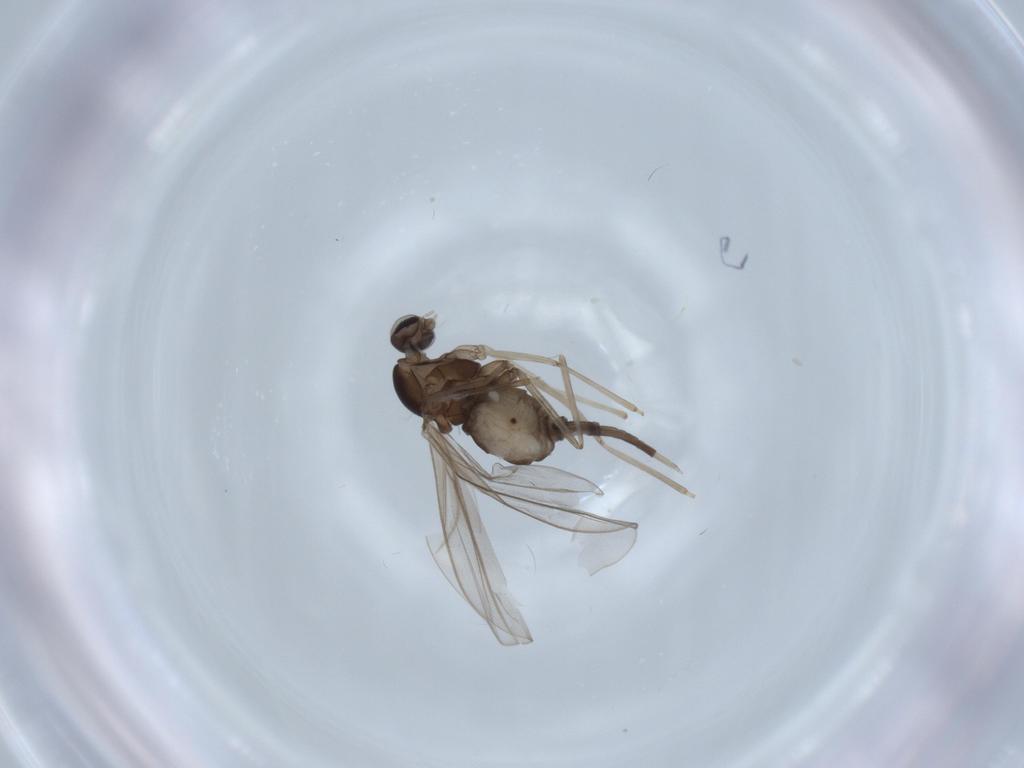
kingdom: Animalia
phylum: Arthropoda
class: Insecta
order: Diptera
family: Cecidomyiidae
